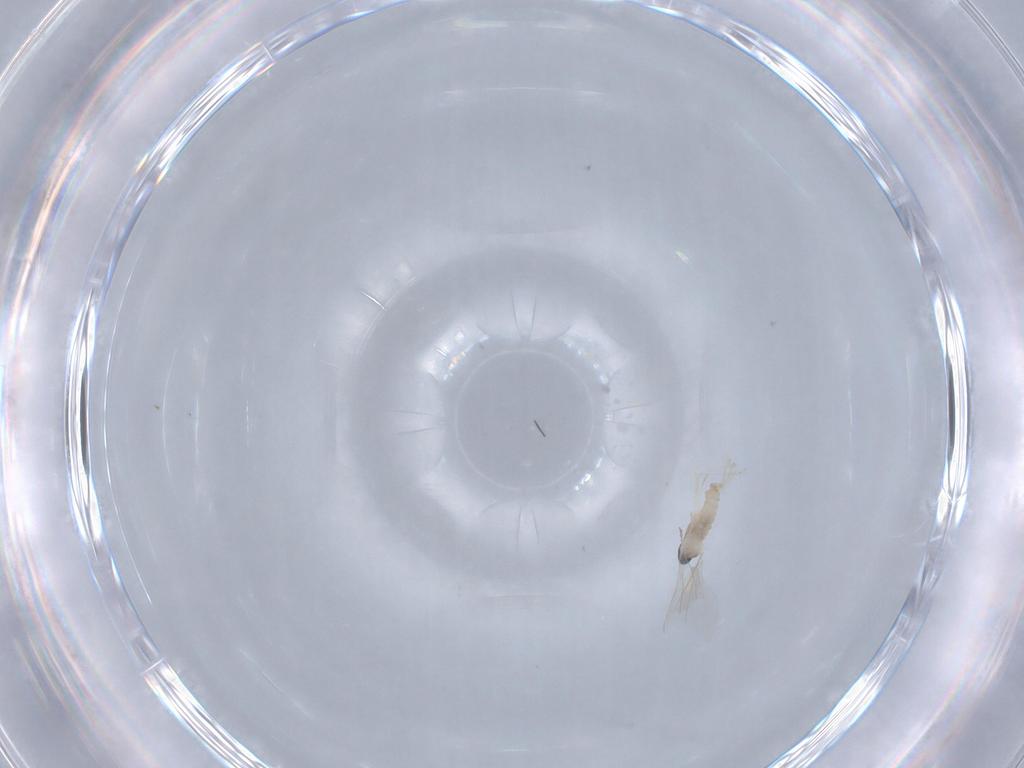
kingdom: Animalia
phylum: Arthropoda
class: Insecta
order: Diptera
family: Cecidomyiidae
